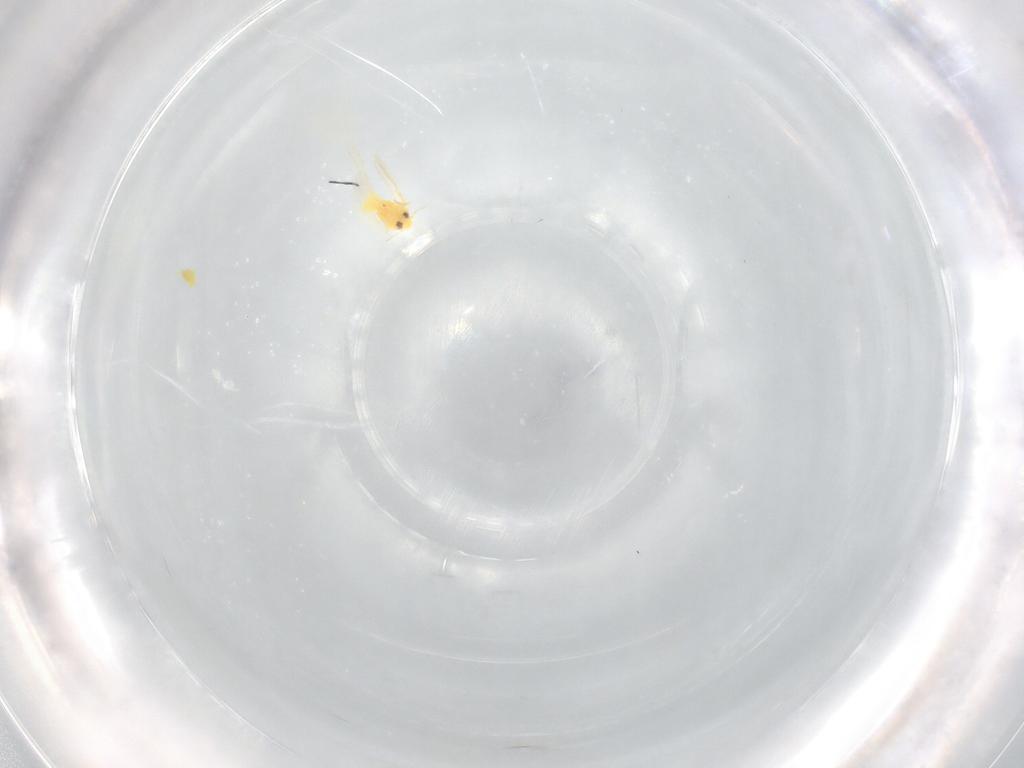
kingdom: Animalia
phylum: Arthropoda
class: Insecta
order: Hemiptera
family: Aleyrodidae
